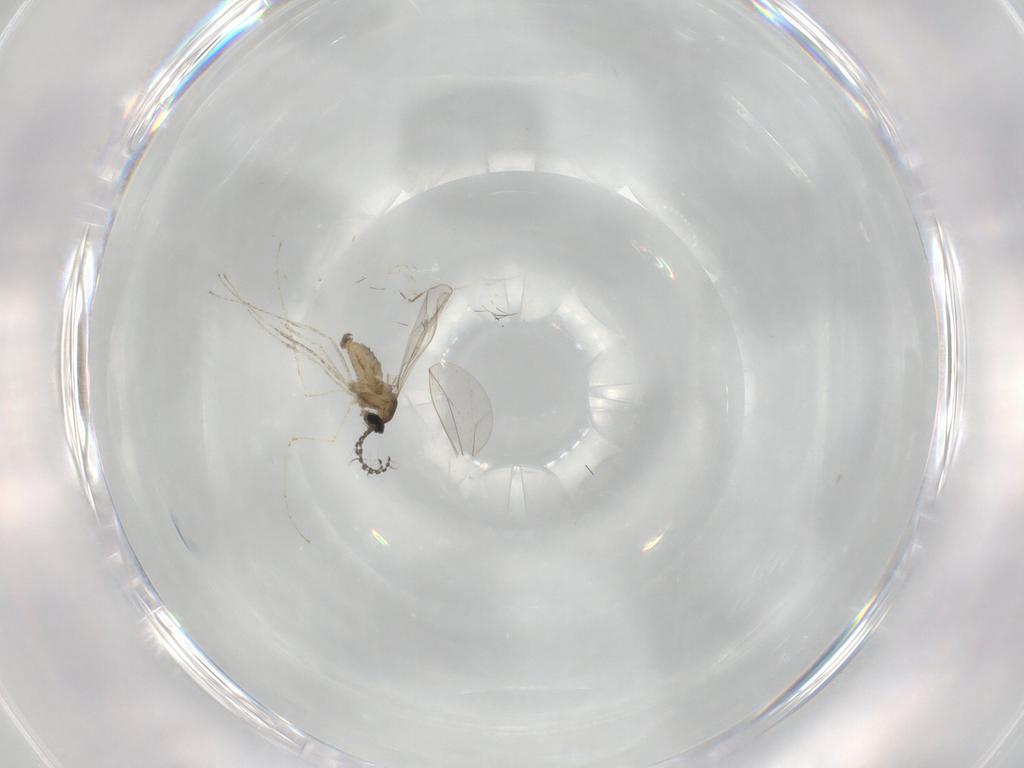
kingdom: Animalia
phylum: Arthropoda
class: Insecta
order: Diptera
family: Cecidomyiidae
